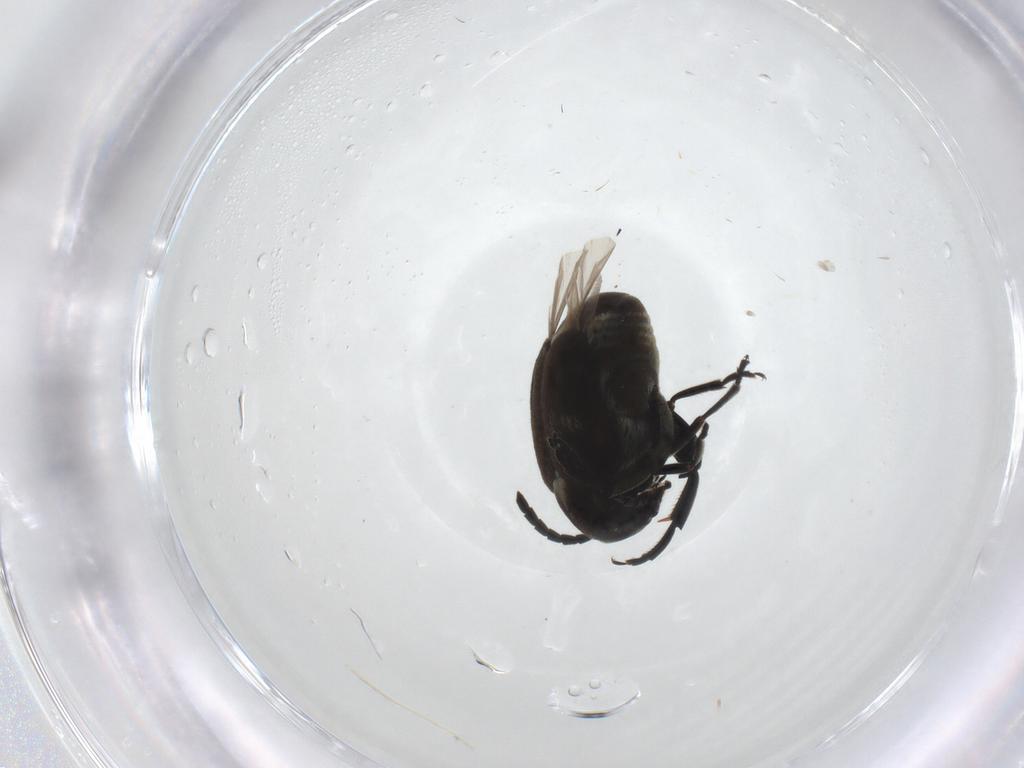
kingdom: Animalia
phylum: Arthropoda
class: Insecta
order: Coleoptera
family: Chrysomelidae
